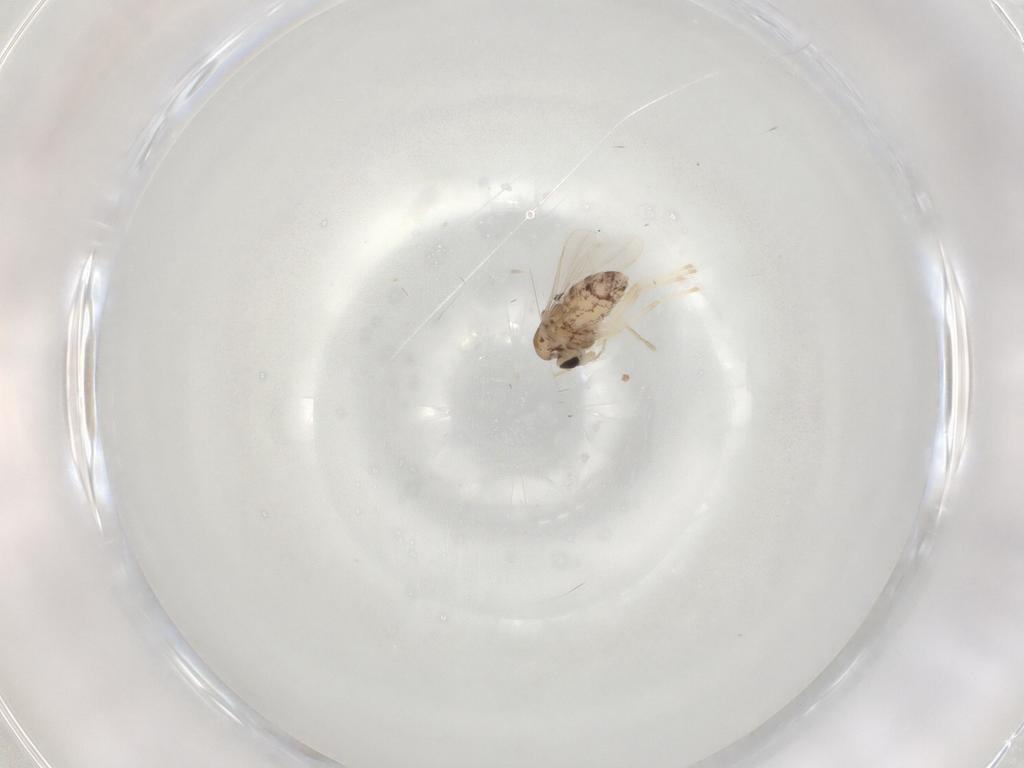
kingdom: Animalia
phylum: Arthropoda
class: Insecta
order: Diptera
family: Chironomidae
